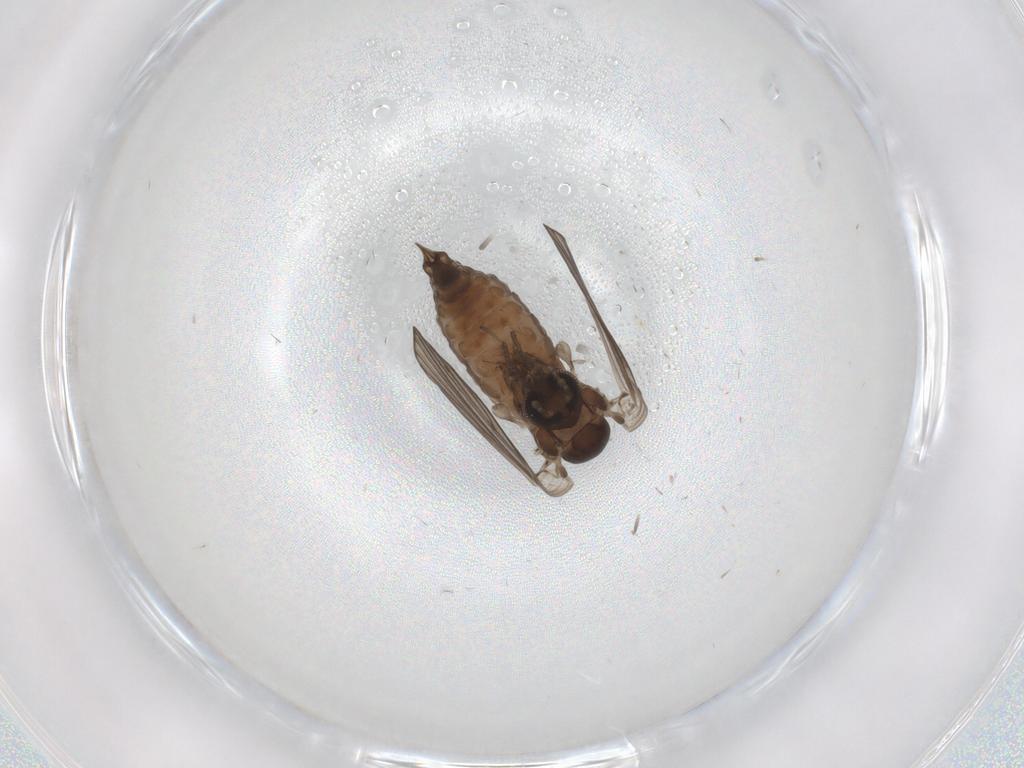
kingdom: Animalia
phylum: Arthropoda
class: Insecta
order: Diptera
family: Psychodidae
